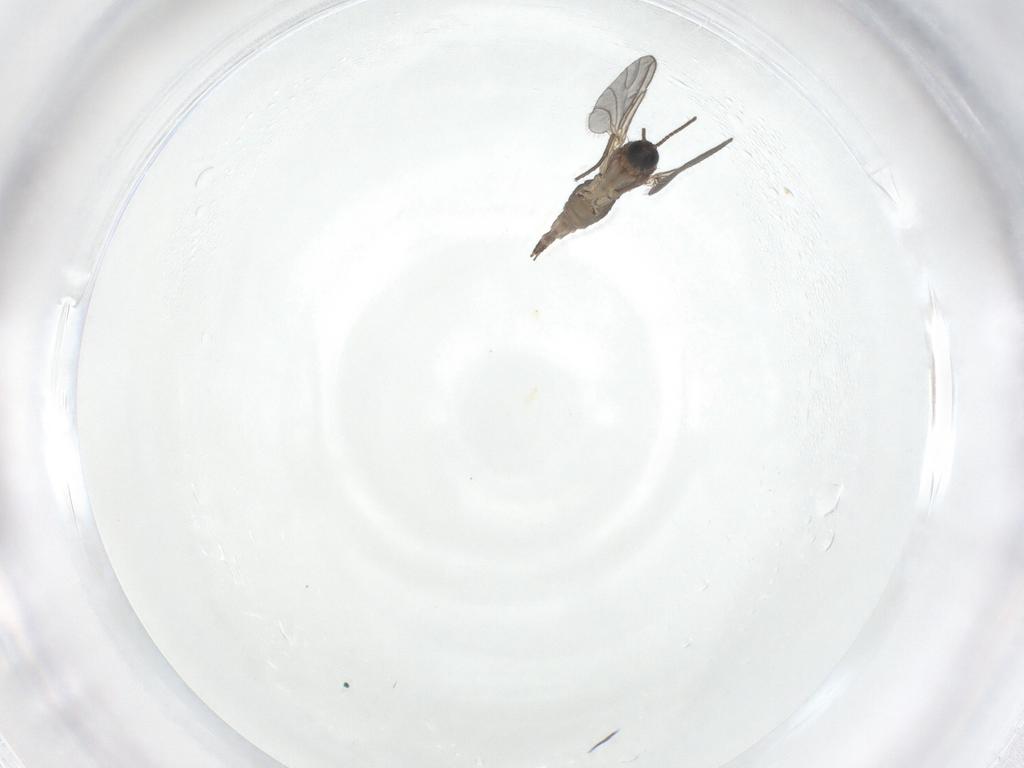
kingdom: Animalia
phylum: Arthropoda
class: Insecta
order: Diptera
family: Sciaridae
